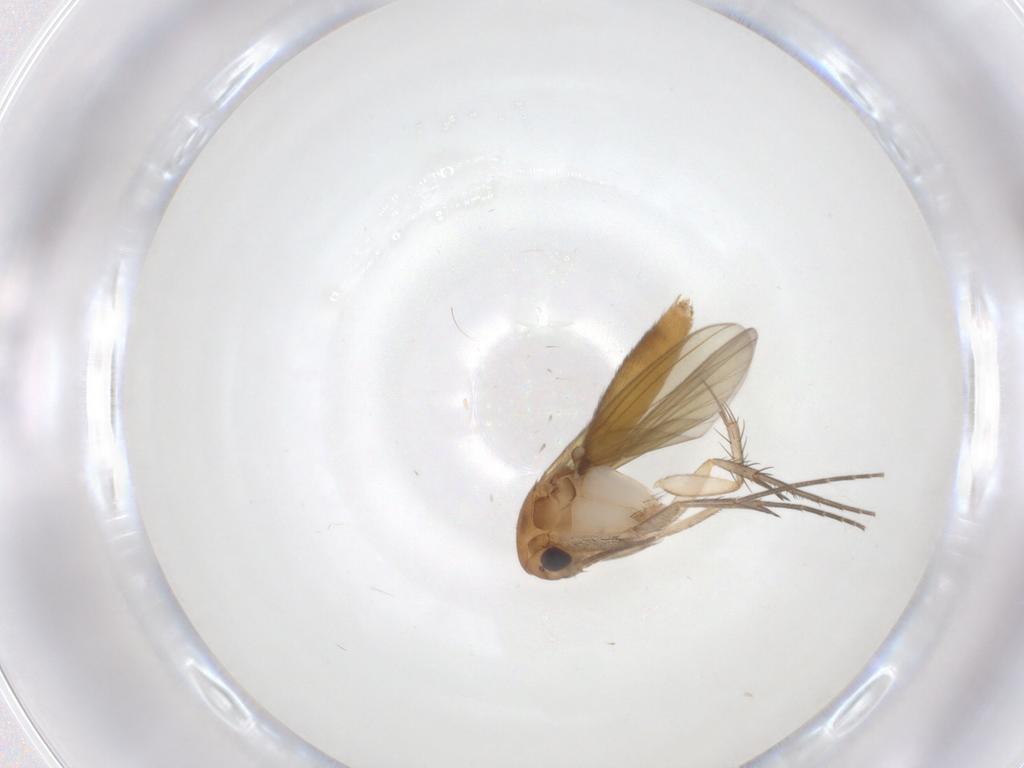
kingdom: Animalia
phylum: Arthropoda
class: Insecta
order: Diptera
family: Mycetophilidae
